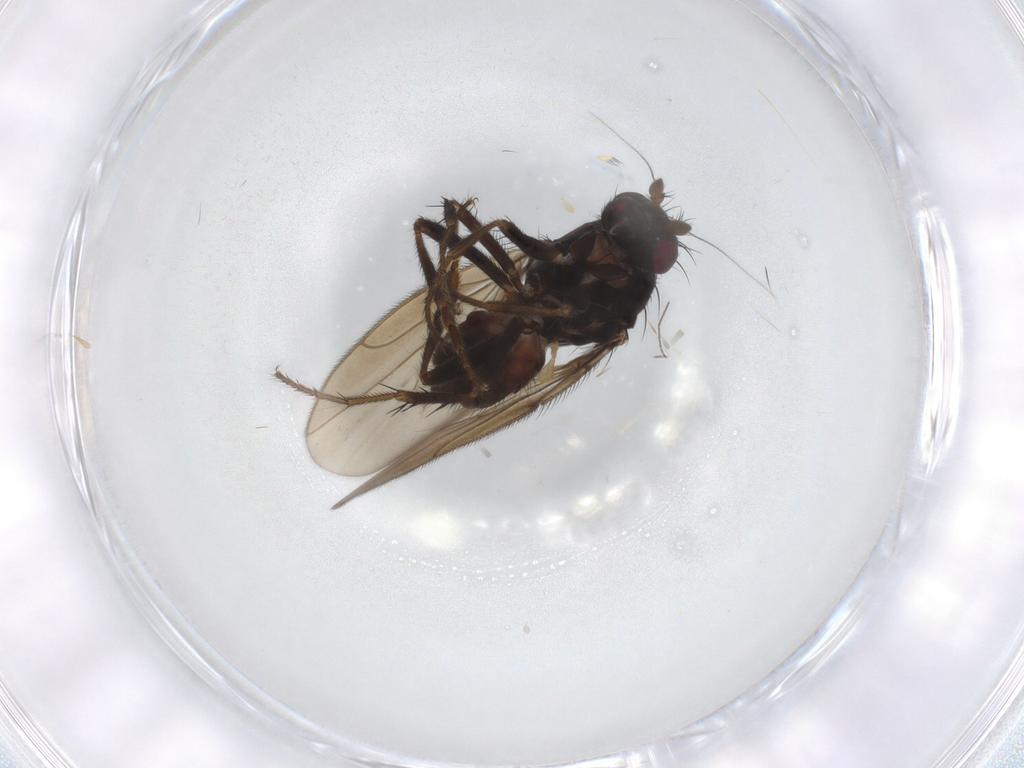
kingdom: Animalia
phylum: Arthropoda
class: Insecta
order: Diptera
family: Sphaeroceridae
